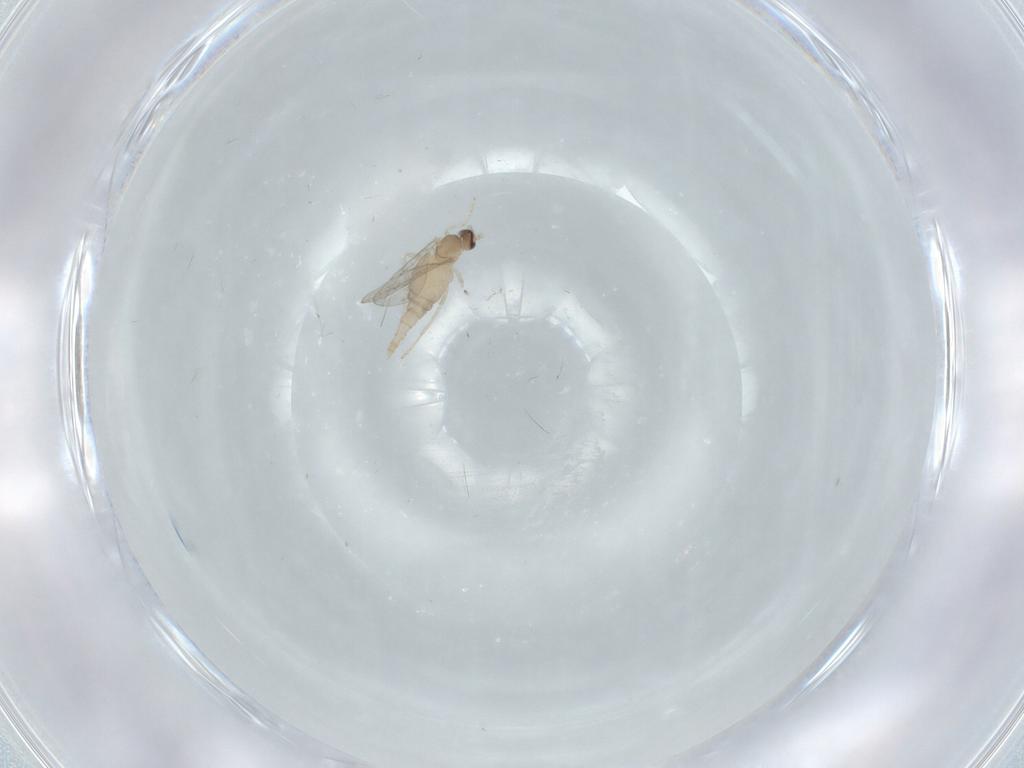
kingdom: Animalia
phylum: Arthropoda
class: Insecta
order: Diptera
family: Cecidomyiidae
